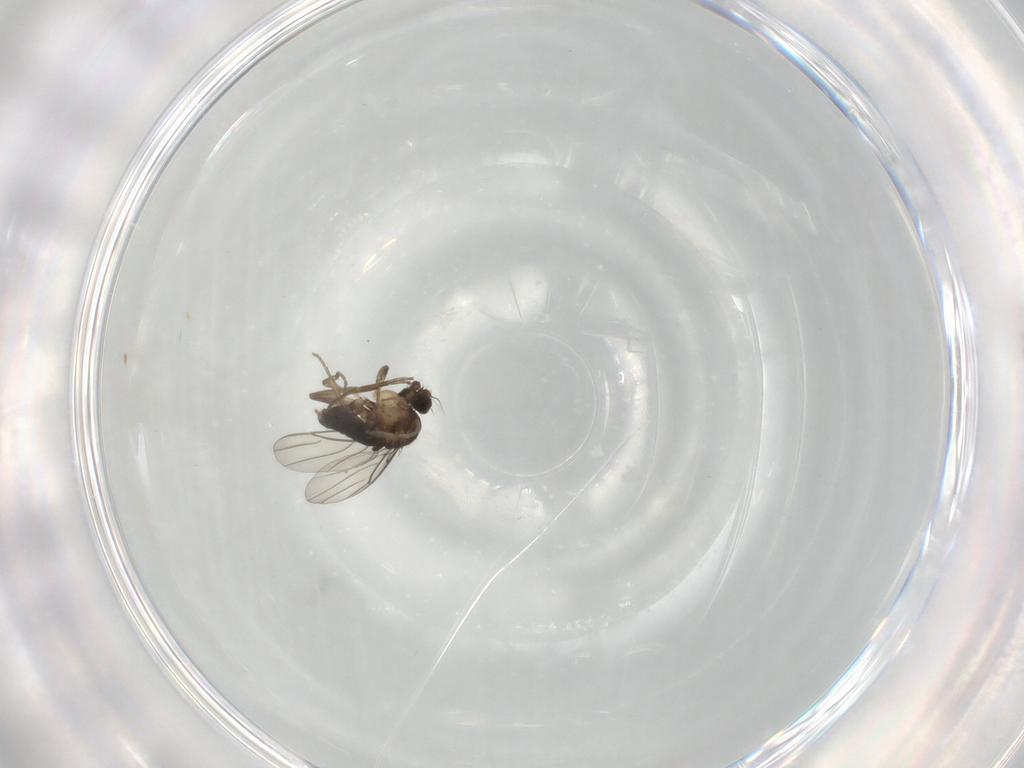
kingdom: Animalia
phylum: Arthropoda
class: Insecta
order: Diptera
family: Phoridae
